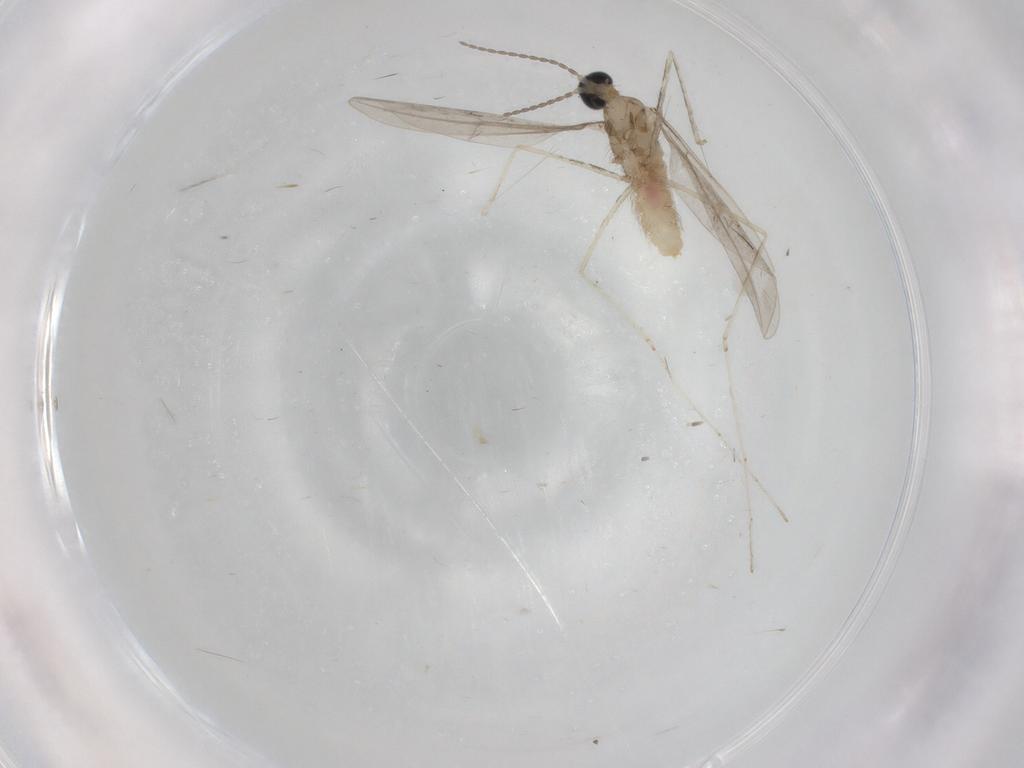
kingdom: Animalia
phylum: Arthropoda
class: Insecta
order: Diptera
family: Cecidomyiidae
